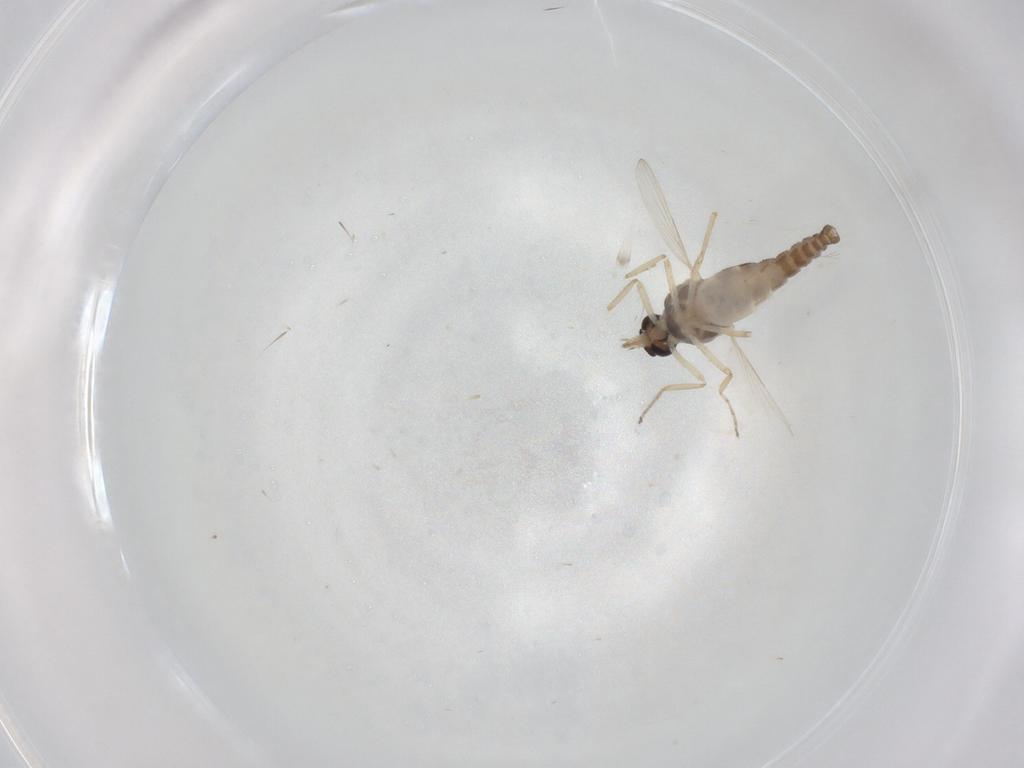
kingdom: Animalia
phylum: Arthropoda
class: Insecta
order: Diptera
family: Ceratopogonidae
